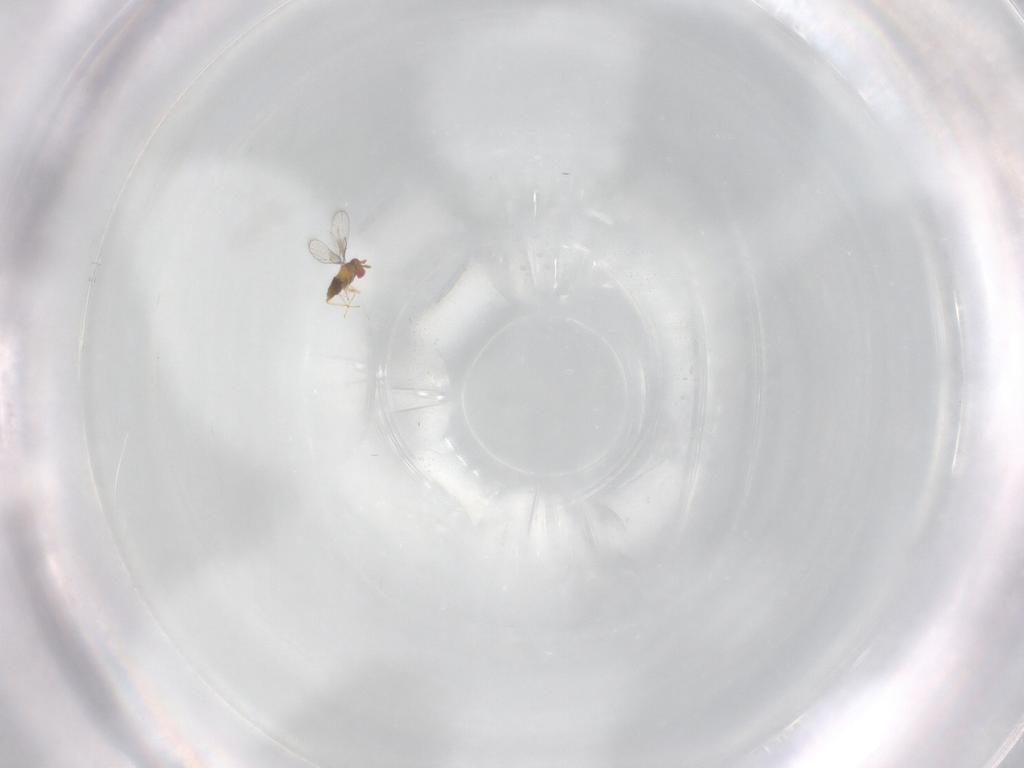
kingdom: Animalia
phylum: Arthropoda
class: Insecta
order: Hymenoptera
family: Trichogrammatidae
